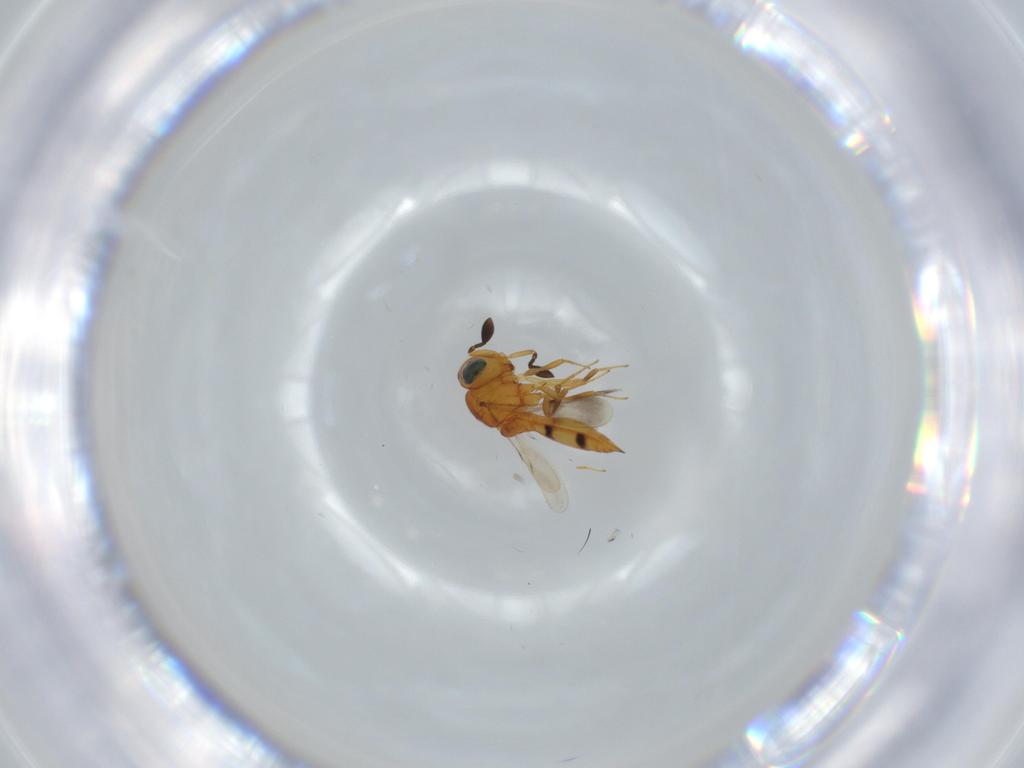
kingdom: Animalia
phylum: Arthropoda
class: Insecta
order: Hymenoptera
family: Scelionidae
